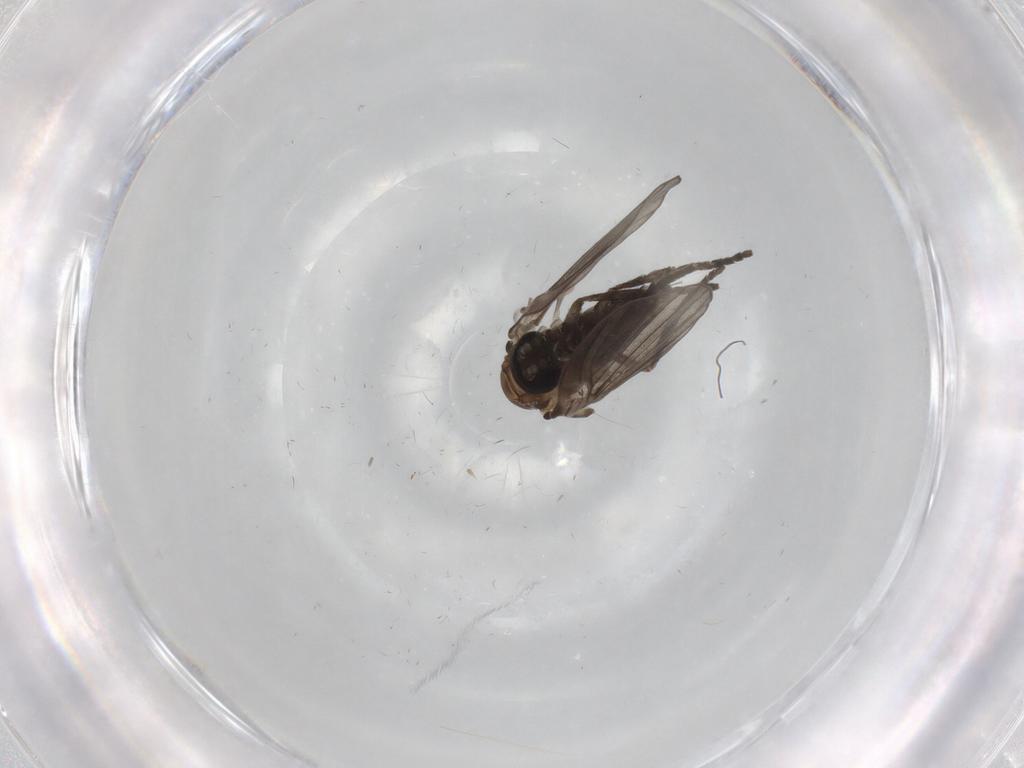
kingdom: Animalia
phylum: Arthropoda
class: Insecta
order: Diptera
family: Psychodidae
